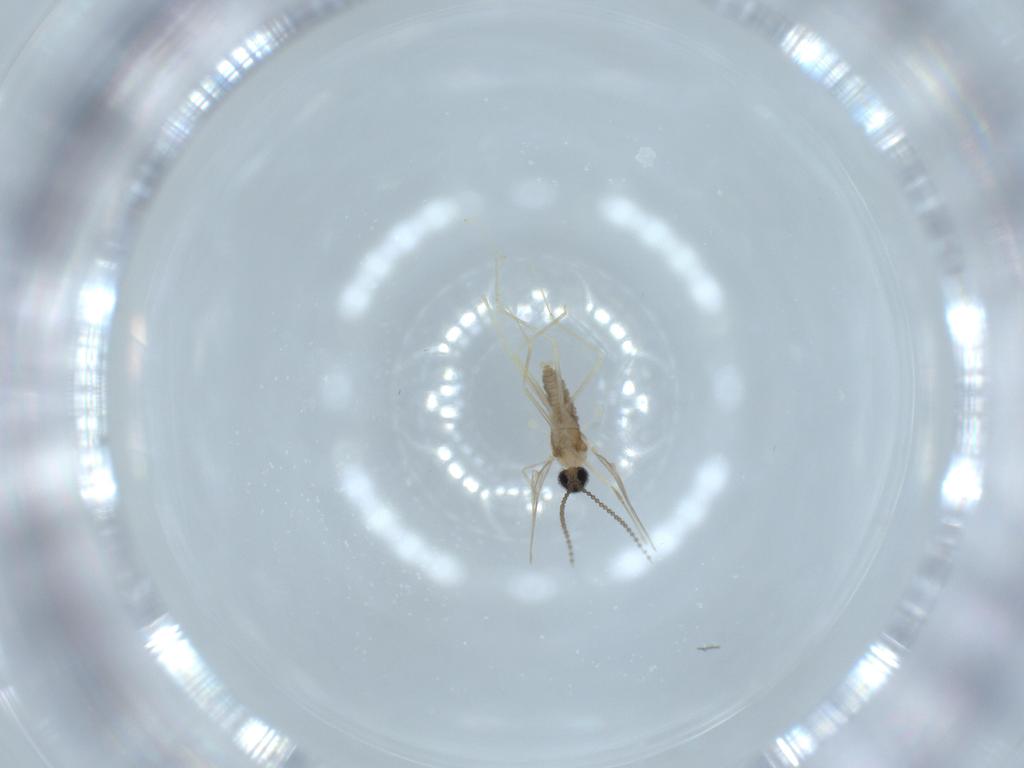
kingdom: Animalia
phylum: Arthropoda
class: Insecta
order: Diptera
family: Cecidomyiidae
